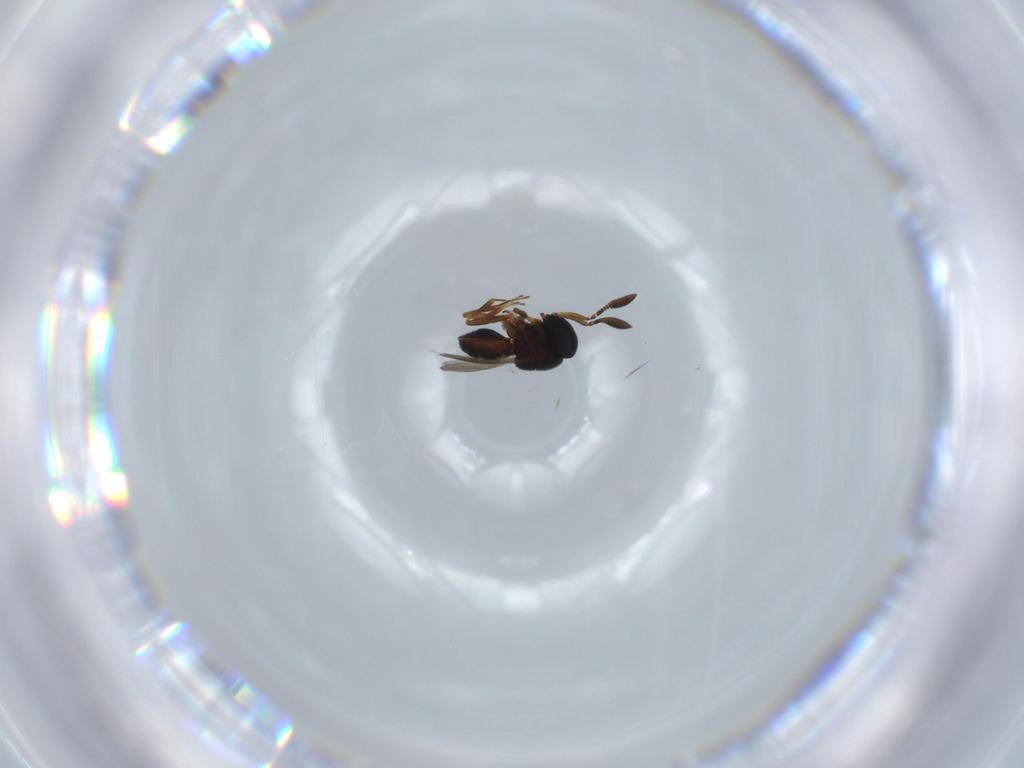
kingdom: Animalia
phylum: Arthropoda
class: Insecta
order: Hymenoptera
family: Scelionidae
